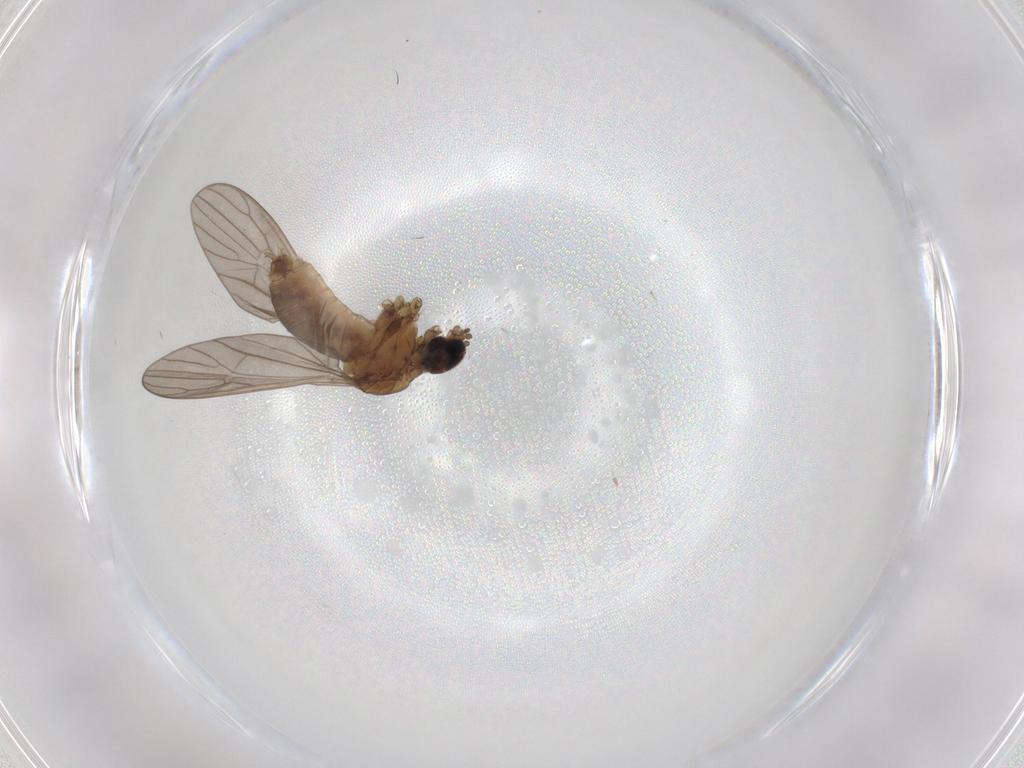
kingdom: Animalia
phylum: Arthropoda
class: Insecta
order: Diptera
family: Sciaridae
